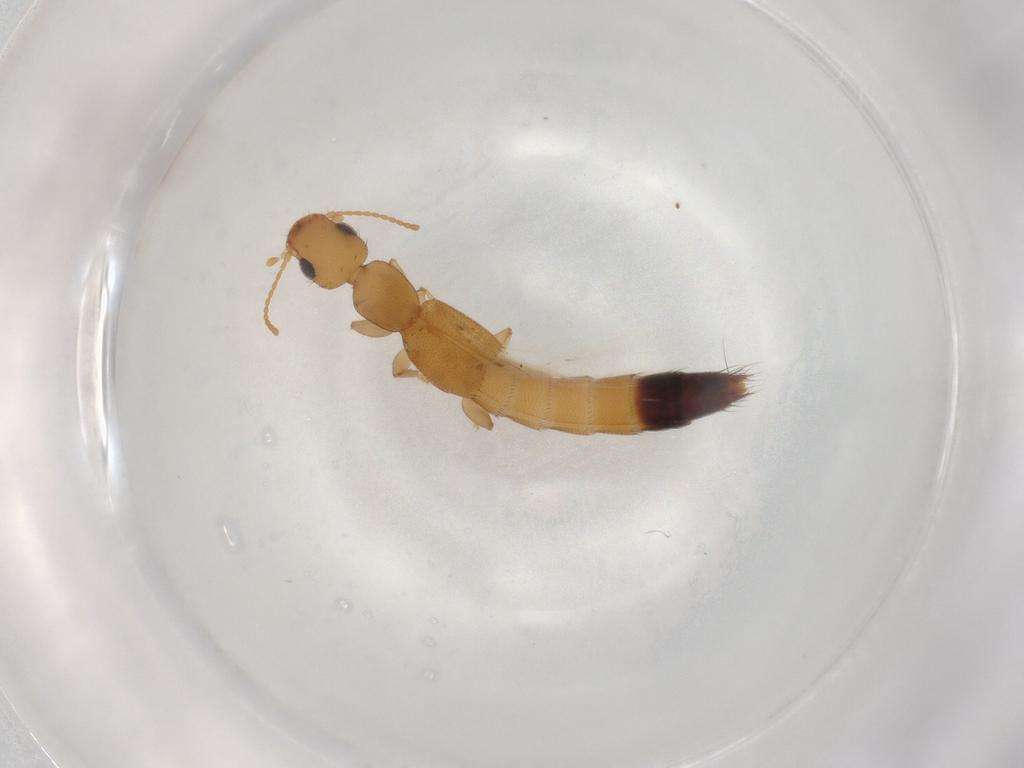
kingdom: Animalia
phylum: Arthropoda
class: Insecta
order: Coleoptera
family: Staphylinidae
